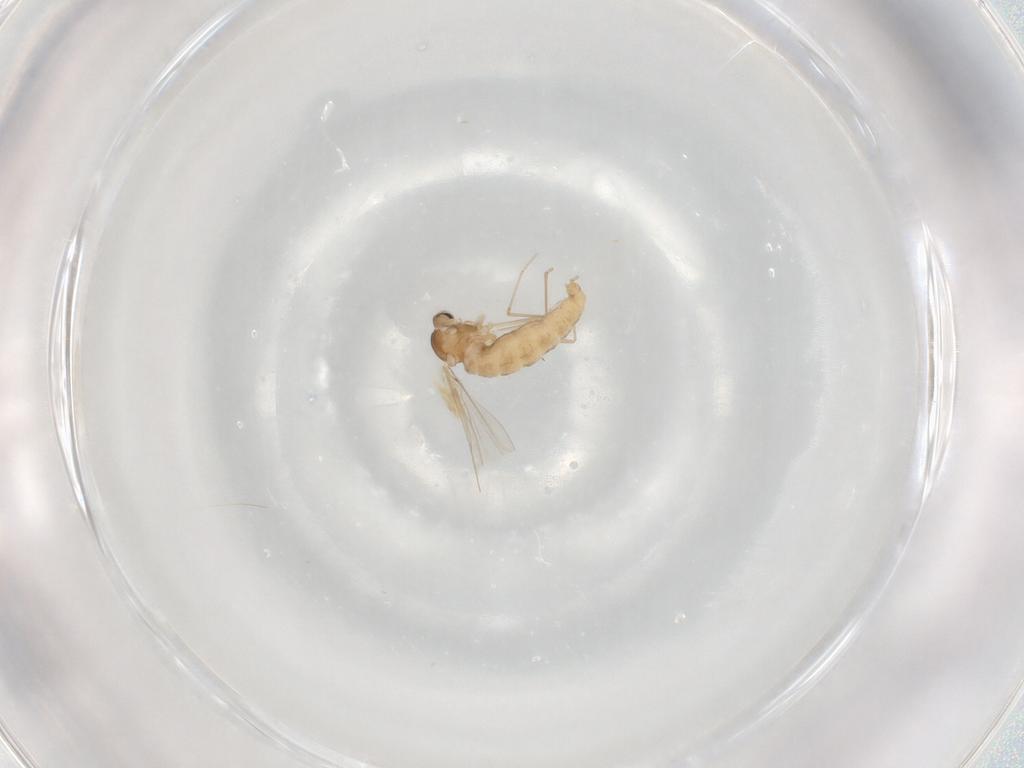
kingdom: Animalia
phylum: Arthropoda
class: Insecta
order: Diptera
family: Cecidomyiidae
